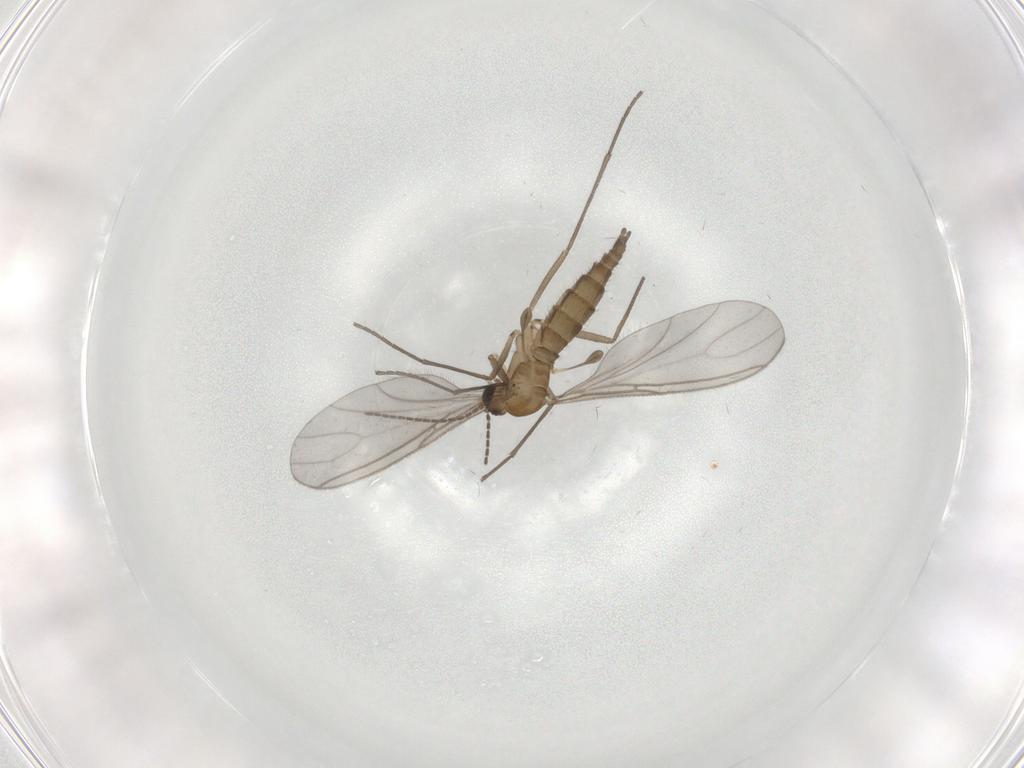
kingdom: Animalia
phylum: Arthropoda
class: Insecta
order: Diptera
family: Sciaridae
